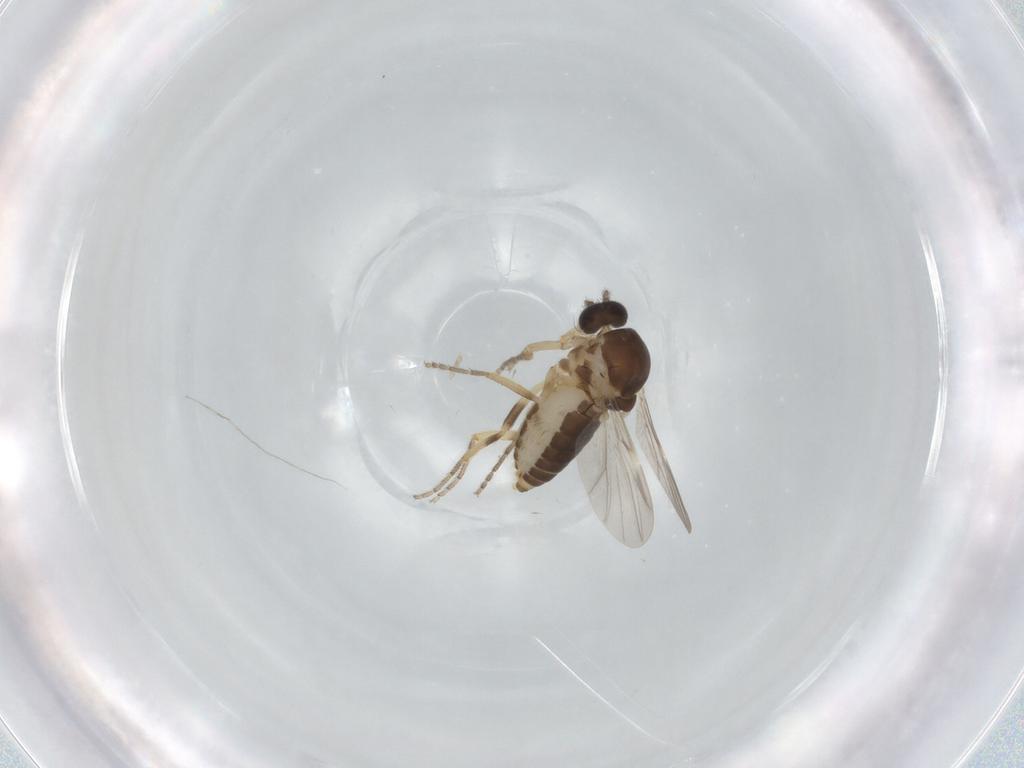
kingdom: Animalia
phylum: Arthropoda
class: Insecta
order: Diptera
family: Ceratopogonidae
